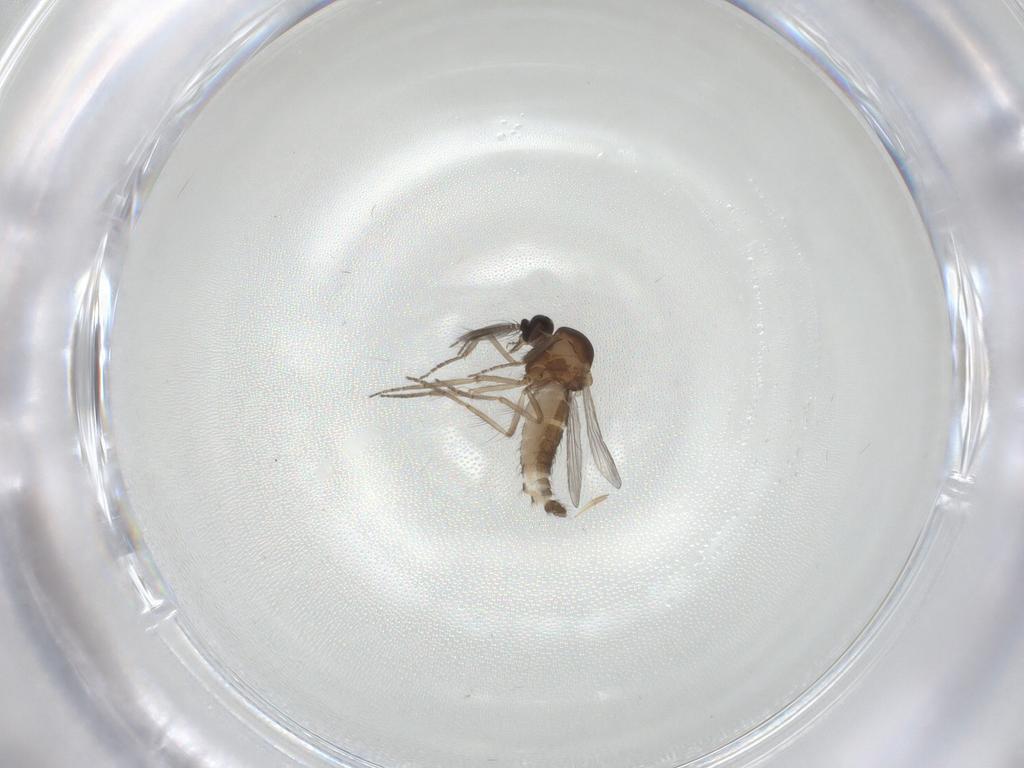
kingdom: Animalia
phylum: Arthropoda
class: Insecta
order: Diptera
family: Ceratopogonidae
